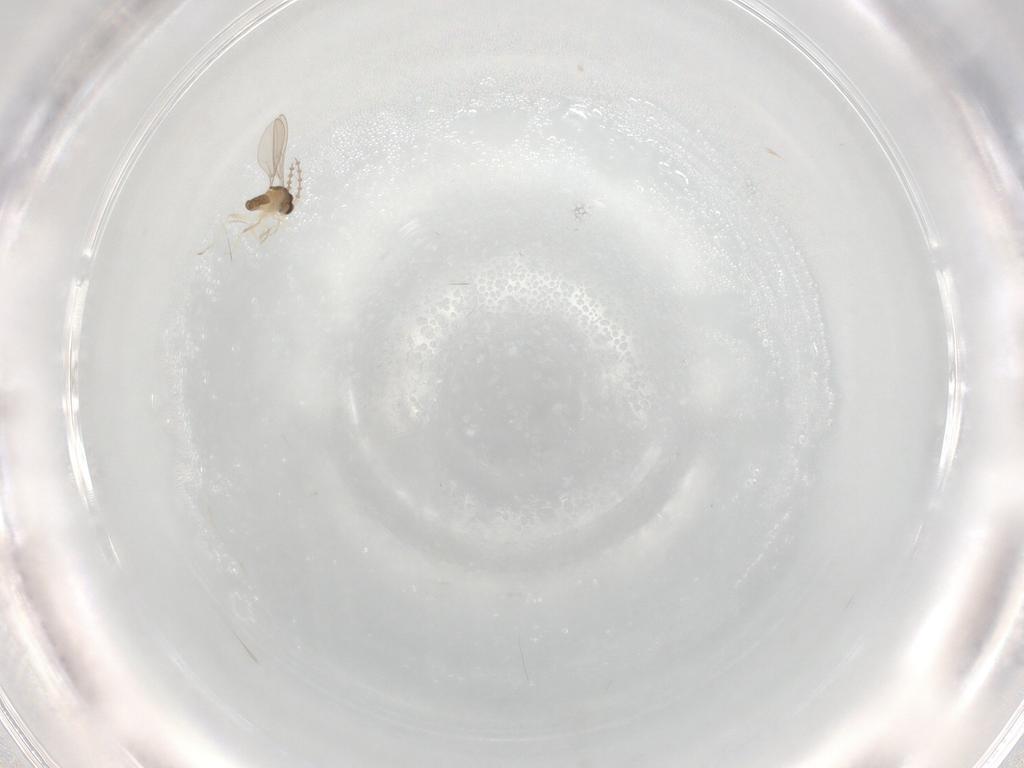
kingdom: Animalia
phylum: Arthropoda
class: Insecta
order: Diptera
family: Cecidomyiidae
